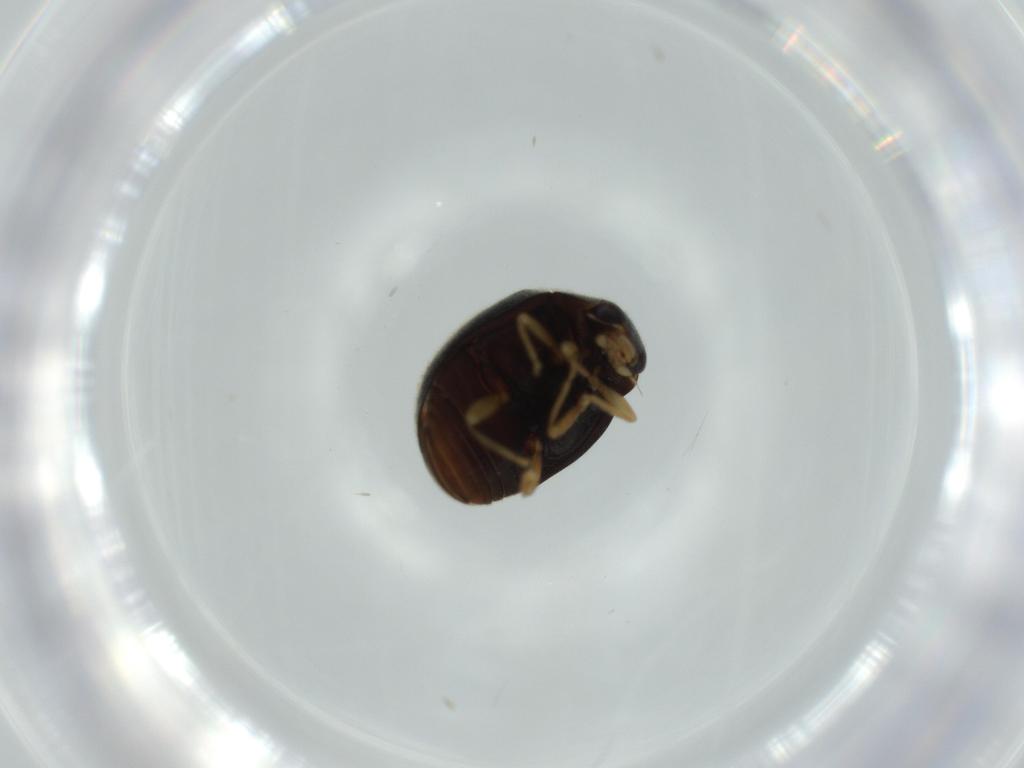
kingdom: Animalia
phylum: Arthropoda
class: Insecta
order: Coleoptera
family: Coccinellidae
